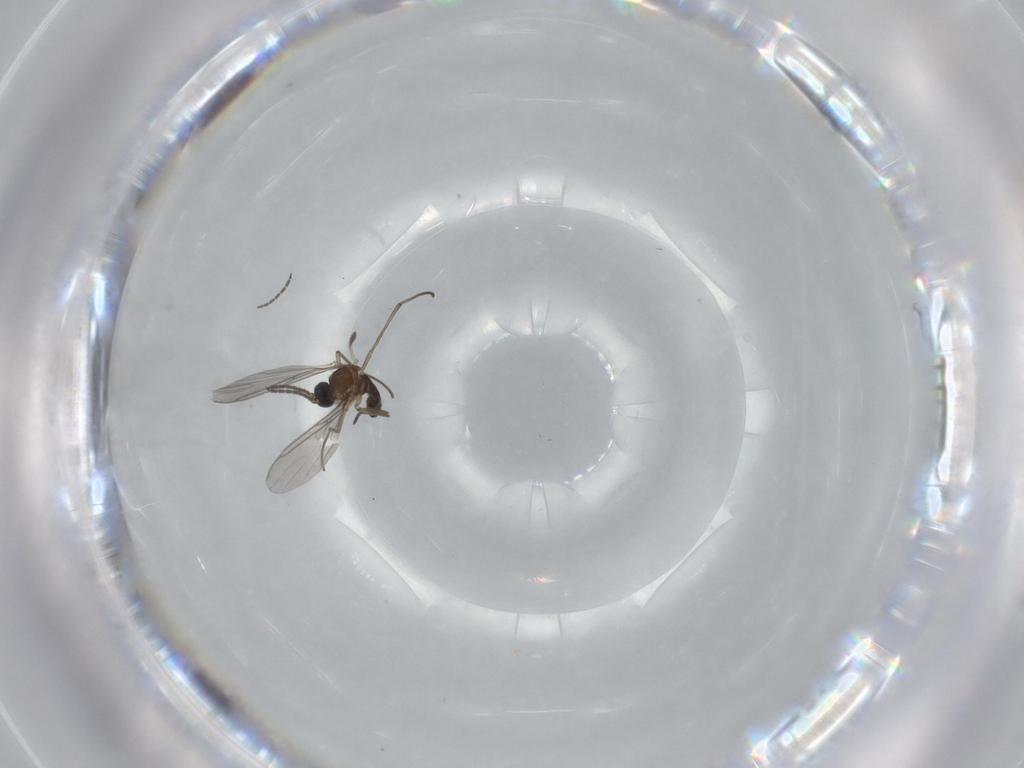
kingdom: Animalia
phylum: Arthropoda
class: Insecta
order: Diptera
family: Sciaridae
